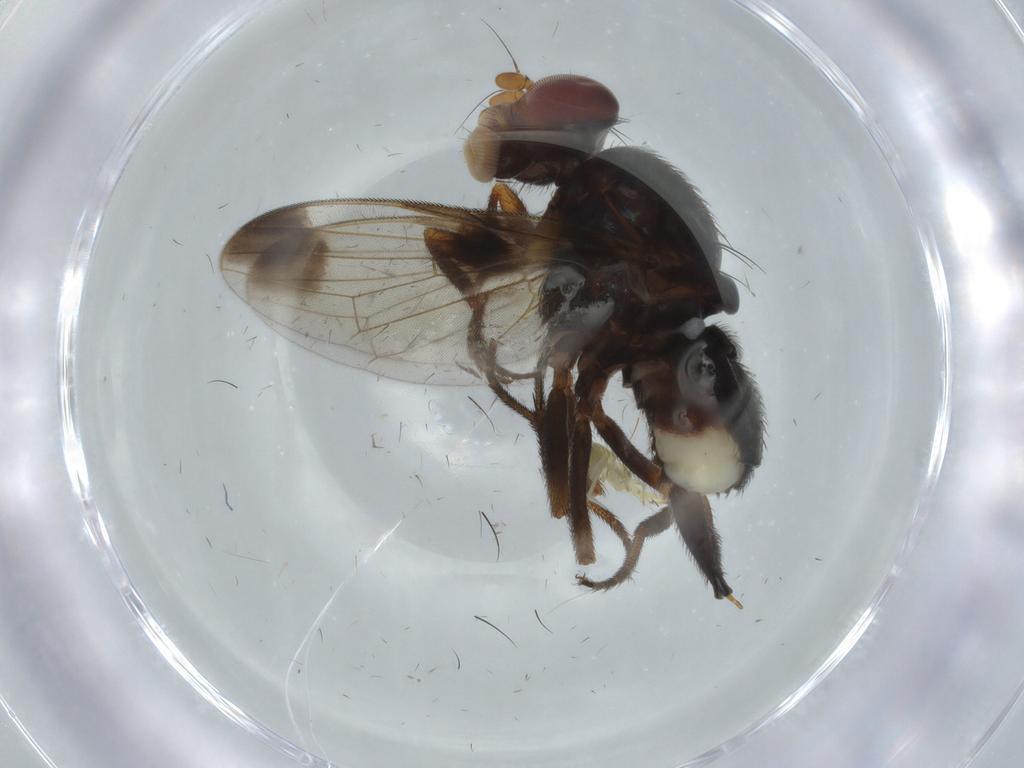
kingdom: Animalia
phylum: Arthropoda
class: Insecta
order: Diptera
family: Ulidiidae
